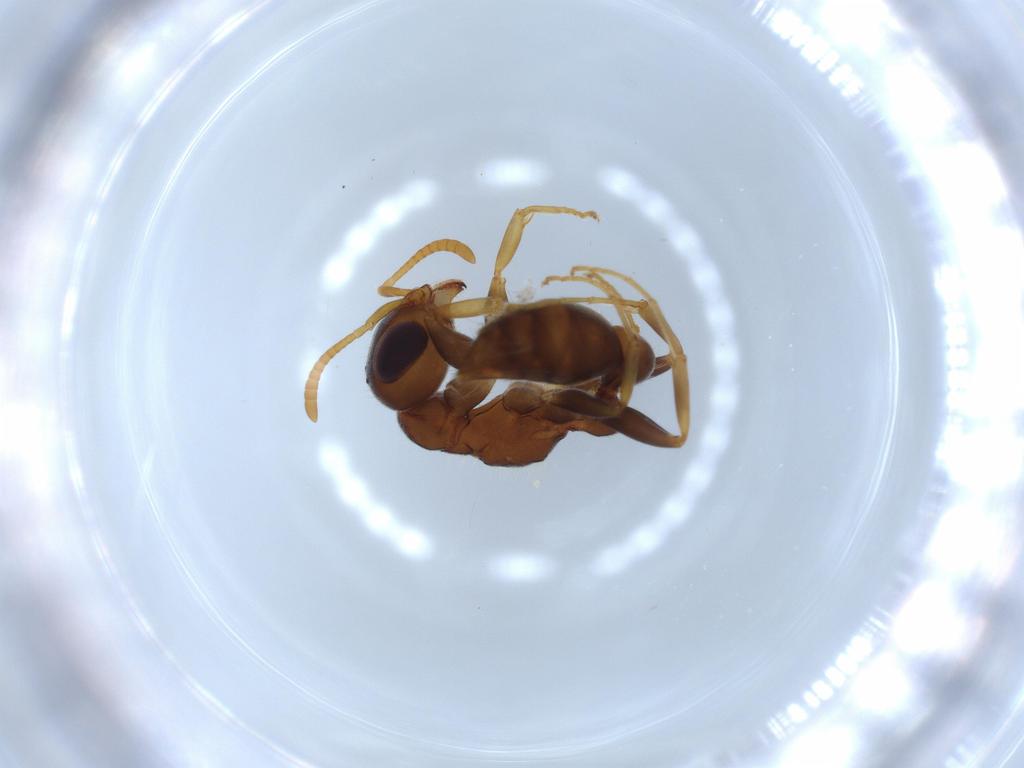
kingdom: Animalia
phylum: Arthropoda
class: Insecta
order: Hymenoptera
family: Formicidae
